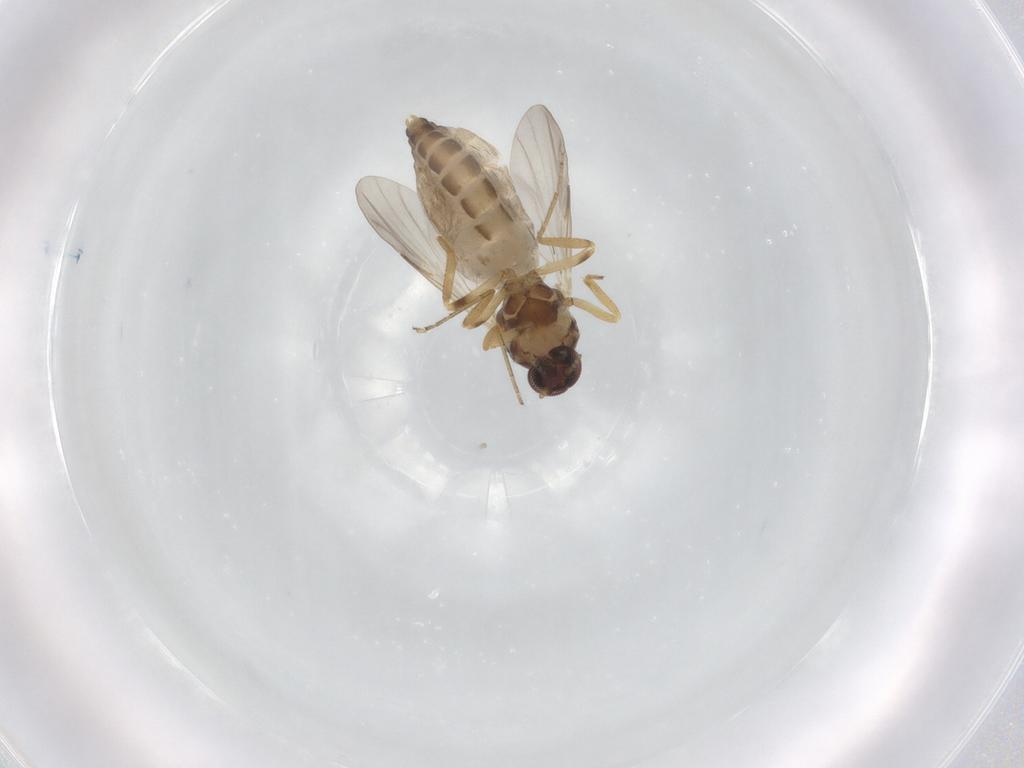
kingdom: Animalia
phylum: Arthropoda
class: Insecta
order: Diptera
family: Ceratopogonidae
